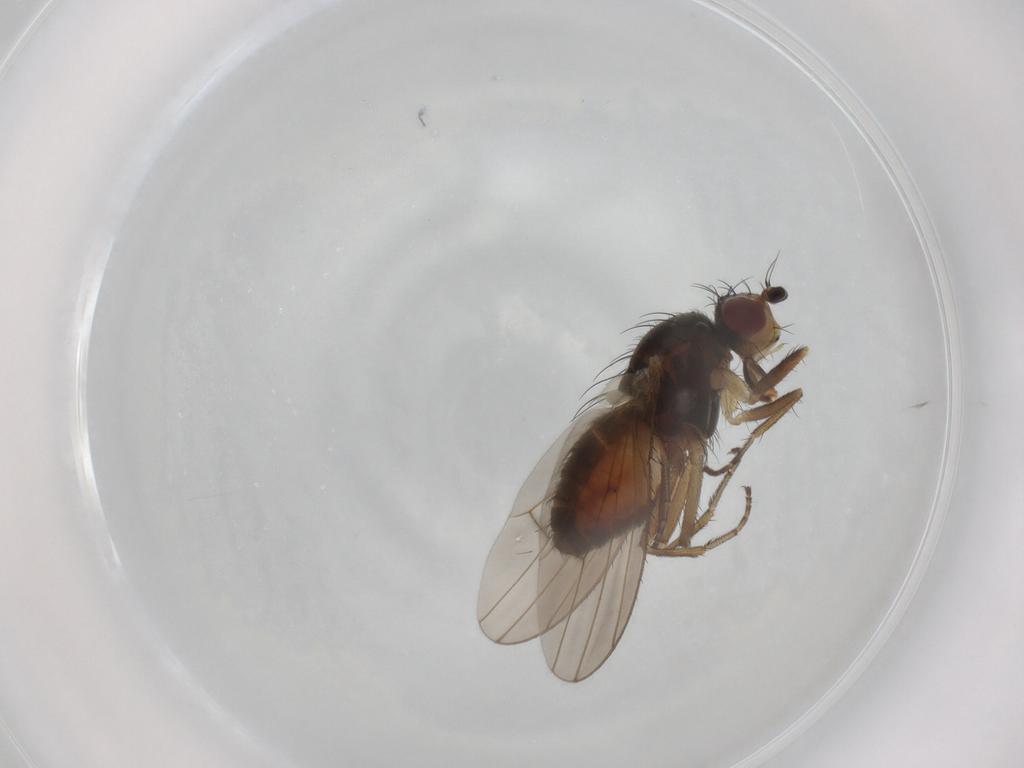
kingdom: Animalia
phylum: Arthropoda
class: Insecta
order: Diptera
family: Heleomyzidae
